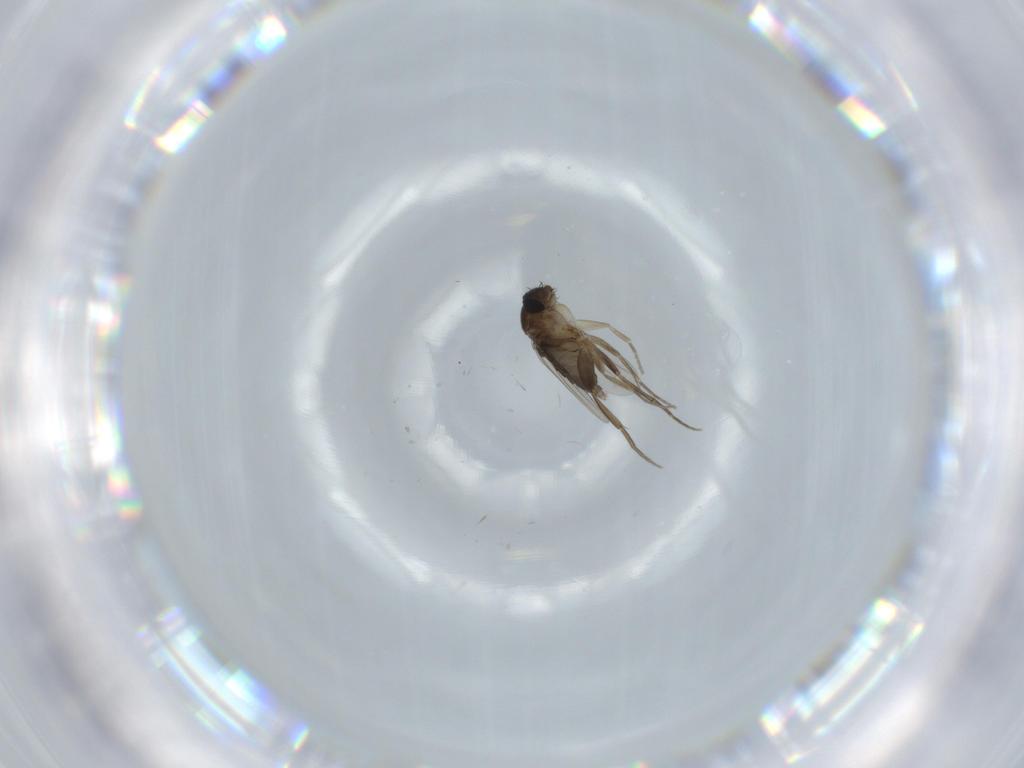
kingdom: Animalia
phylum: Arthropoda
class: Insecta
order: Diptera
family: Phoridae
